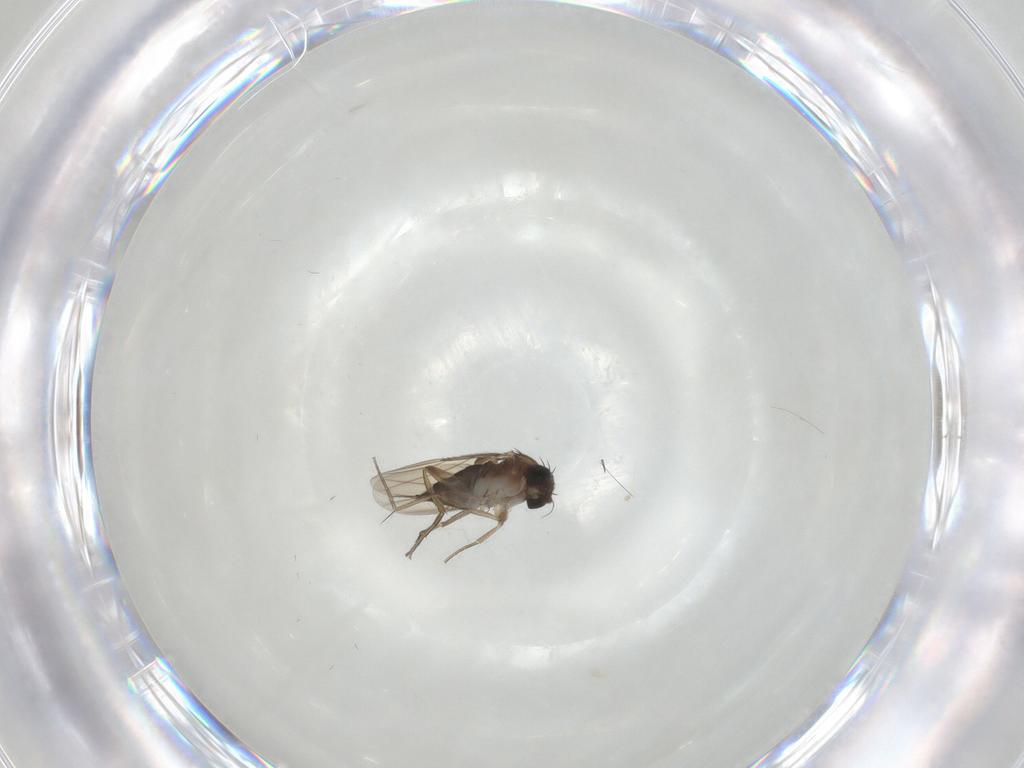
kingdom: Animalia
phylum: Arthropoda
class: Insecta
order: Diptera
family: Phoridae
